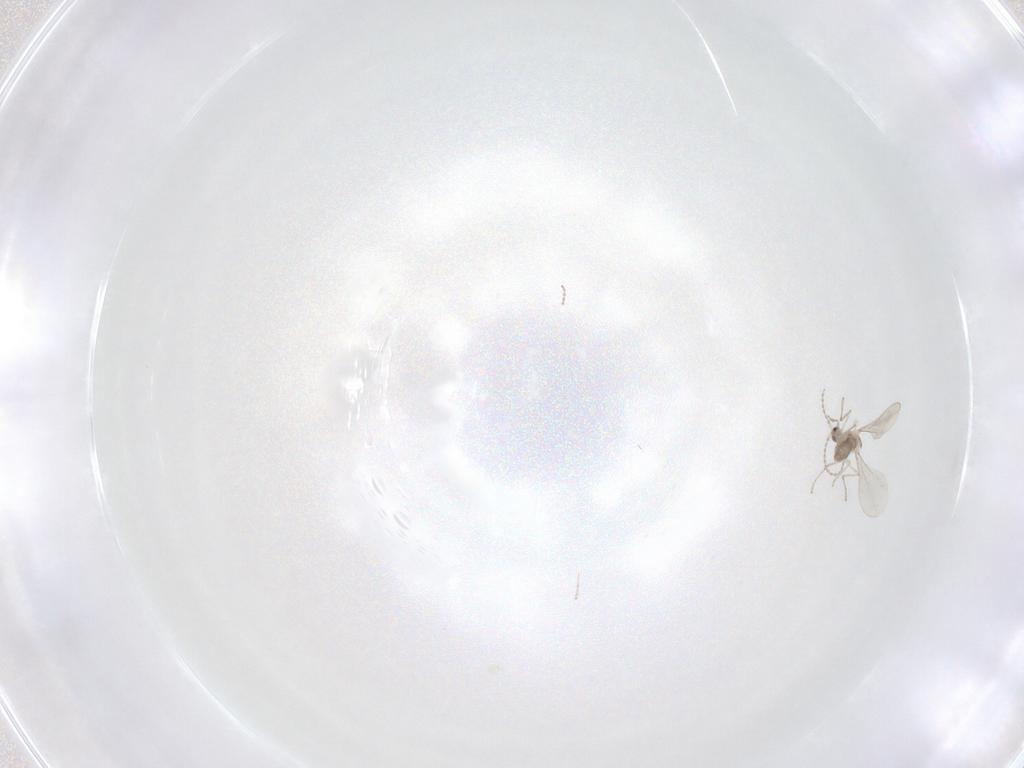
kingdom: Animalia
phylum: Arthropoda
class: Insecta
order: Diptera
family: Cecidomyiidae
